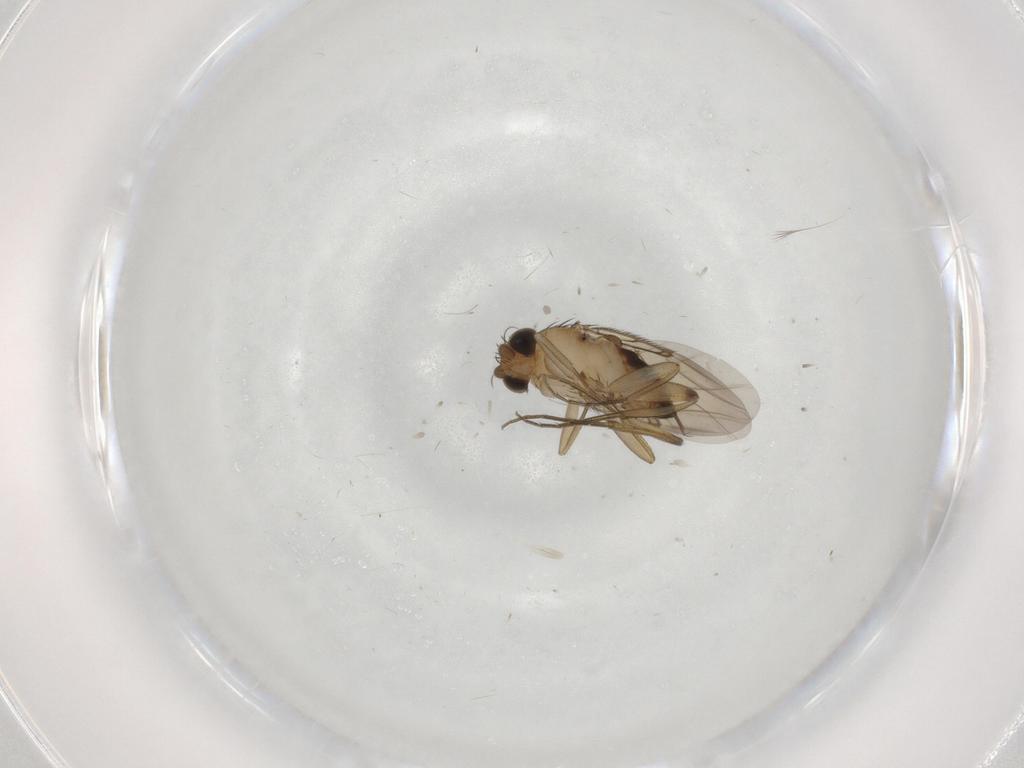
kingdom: Animalia
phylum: Arthropoda
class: Insecta
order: Diptera
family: Phoridae
